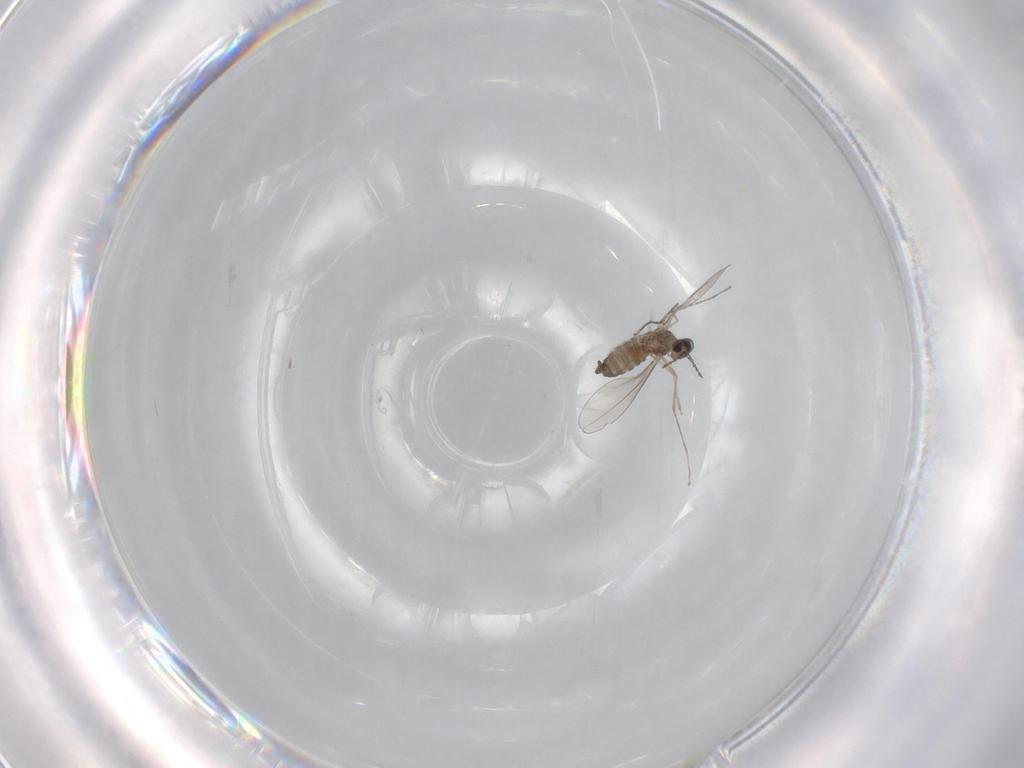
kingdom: Animalia
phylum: Arthropoda
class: Insecta
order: Diptera
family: Cecidomyiidae
